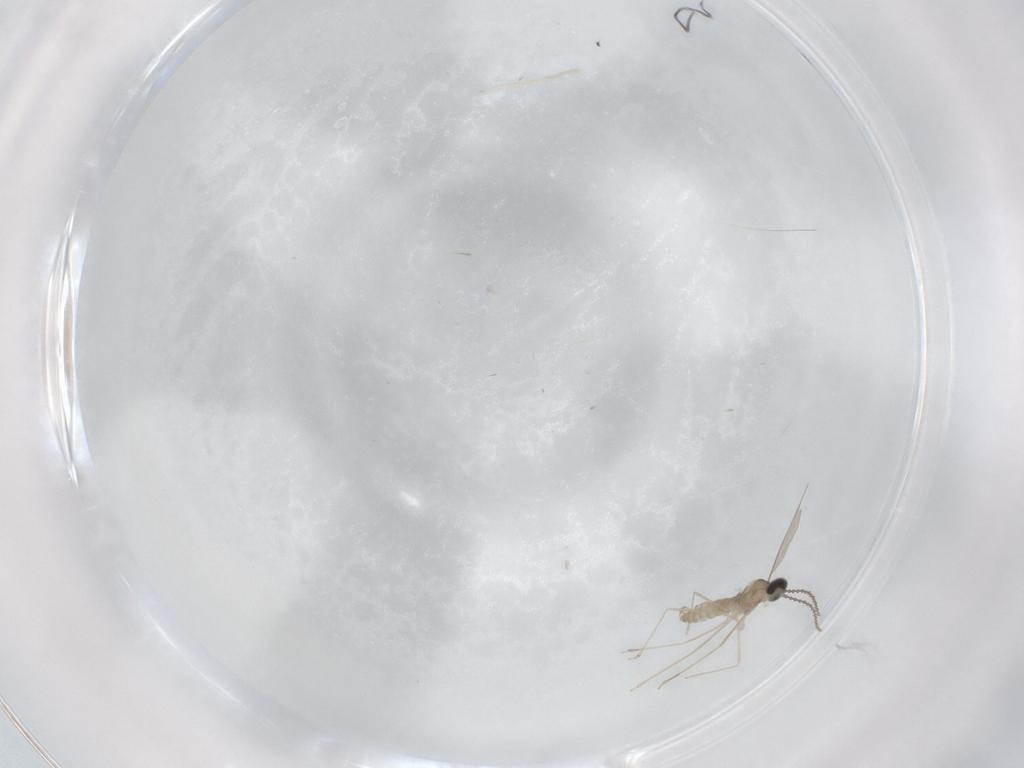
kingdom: Animalia
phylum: Arthropoda
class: Insecta
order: Diptera
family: Cecidomyiidae
